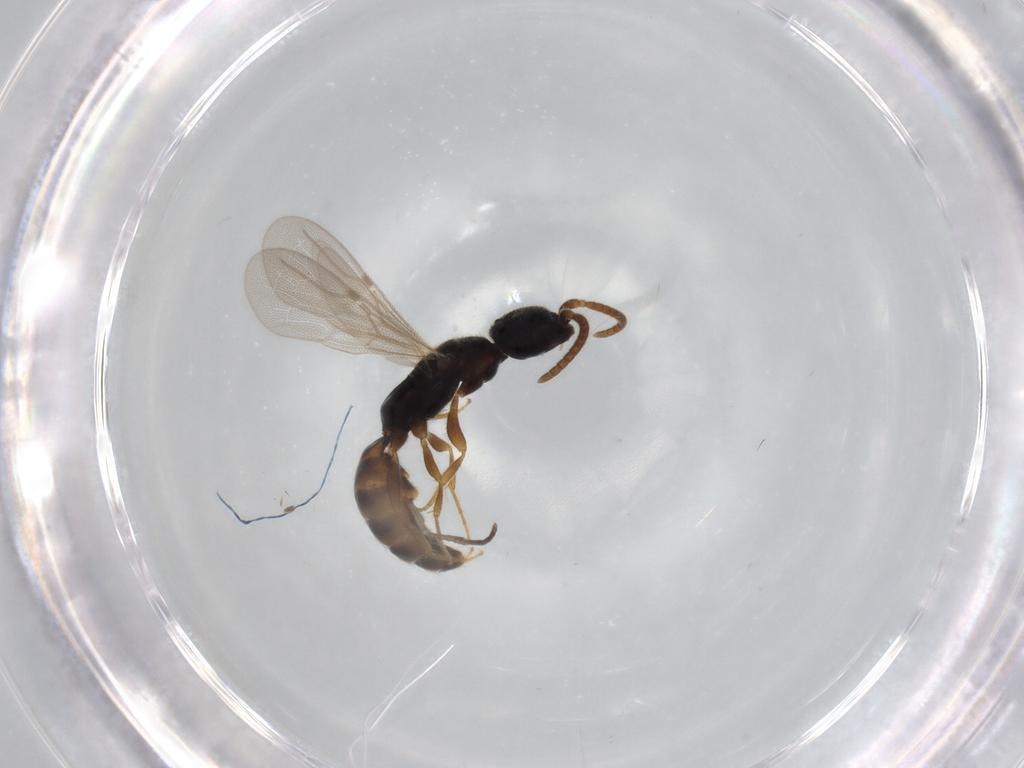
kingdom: Animalia
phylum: Arthropoda
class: Insecta
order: Hymenoptera
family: Bethylidae
